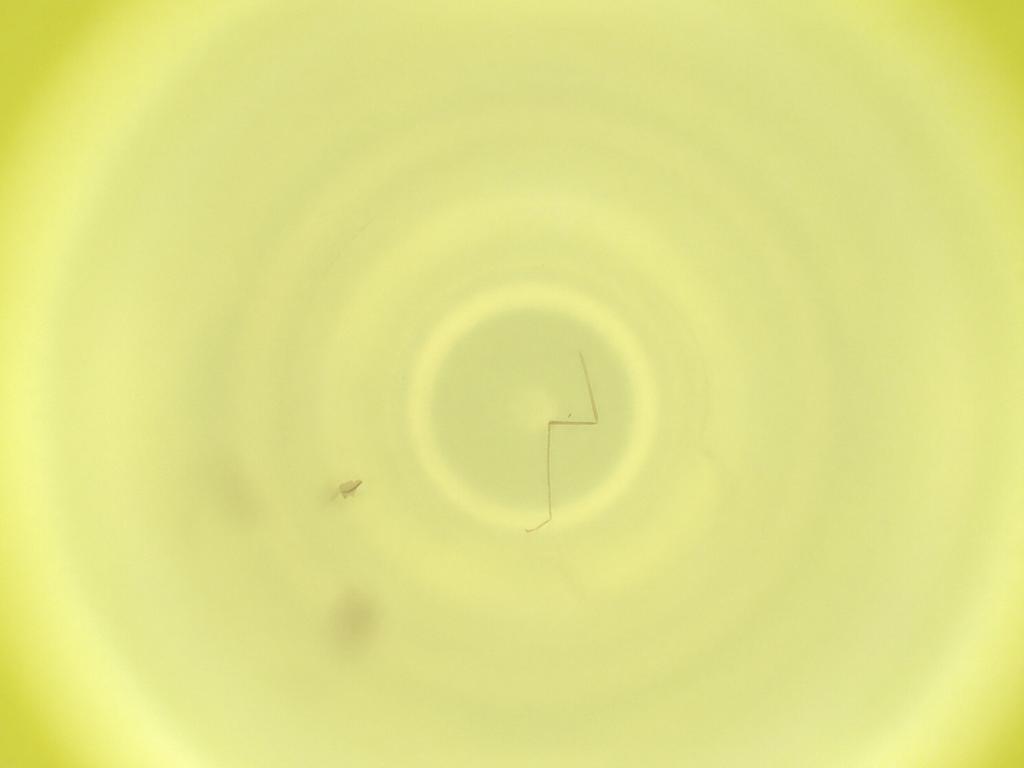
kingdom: Animalia
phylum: Arthropoda
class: Insecta
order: Diptera
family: Cecidomyiidae
